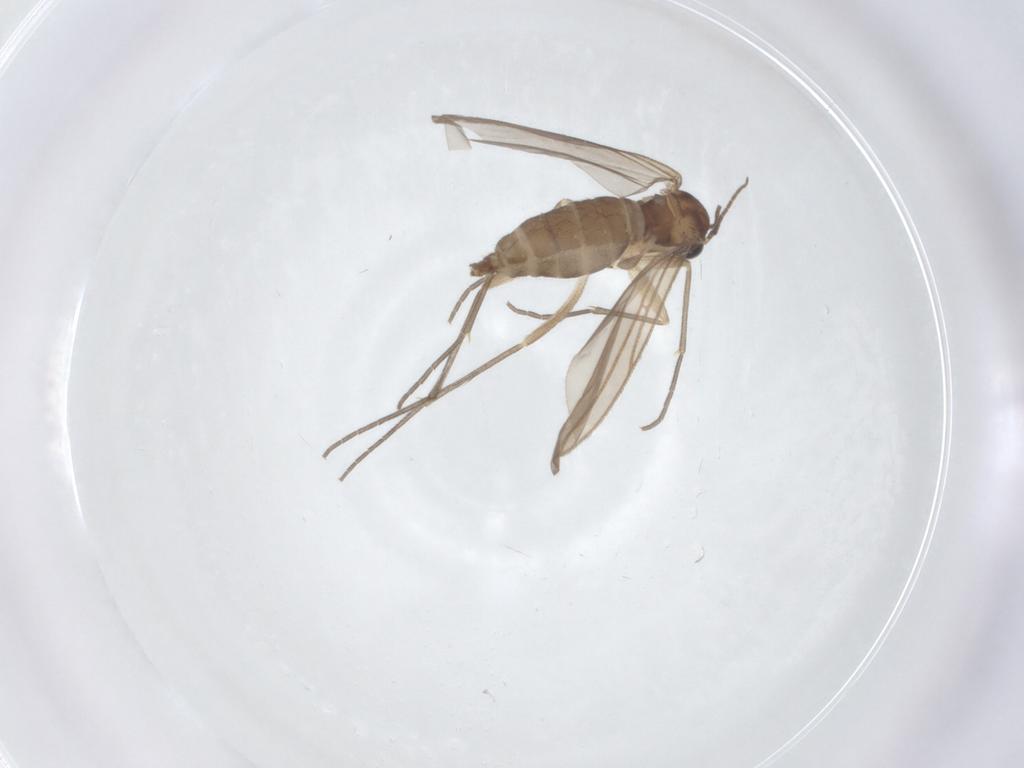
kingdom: Animalia
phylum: Arthropoda
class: Insecta
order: Diptera
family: Sciaridae
